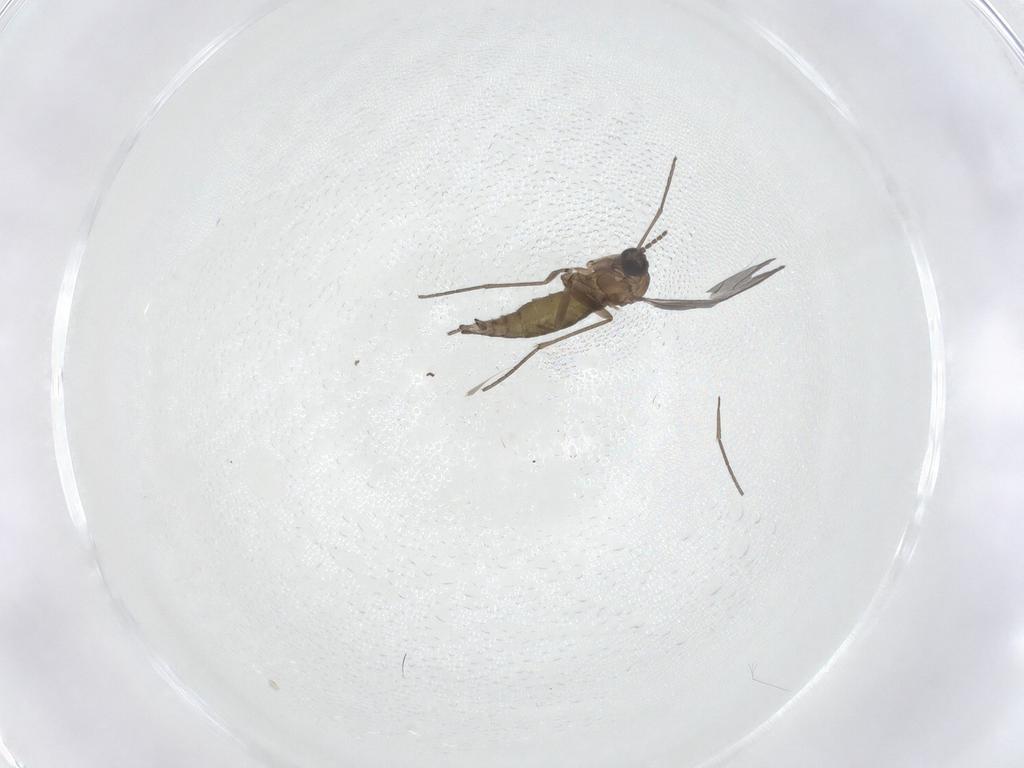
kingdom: Animalia
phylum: Arthropoda
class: Insecta
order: Diptera
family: Sciaridae
